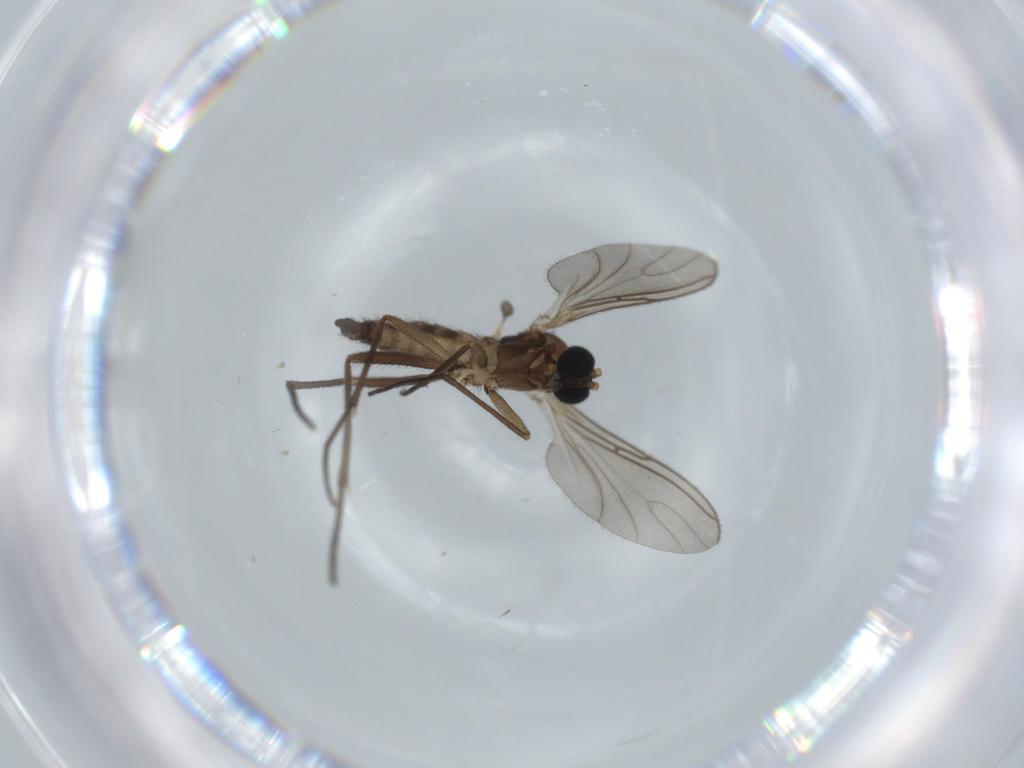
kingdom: Animalia
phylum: Arthropoda
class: Insecta
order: Diptera
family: Sciaridae
